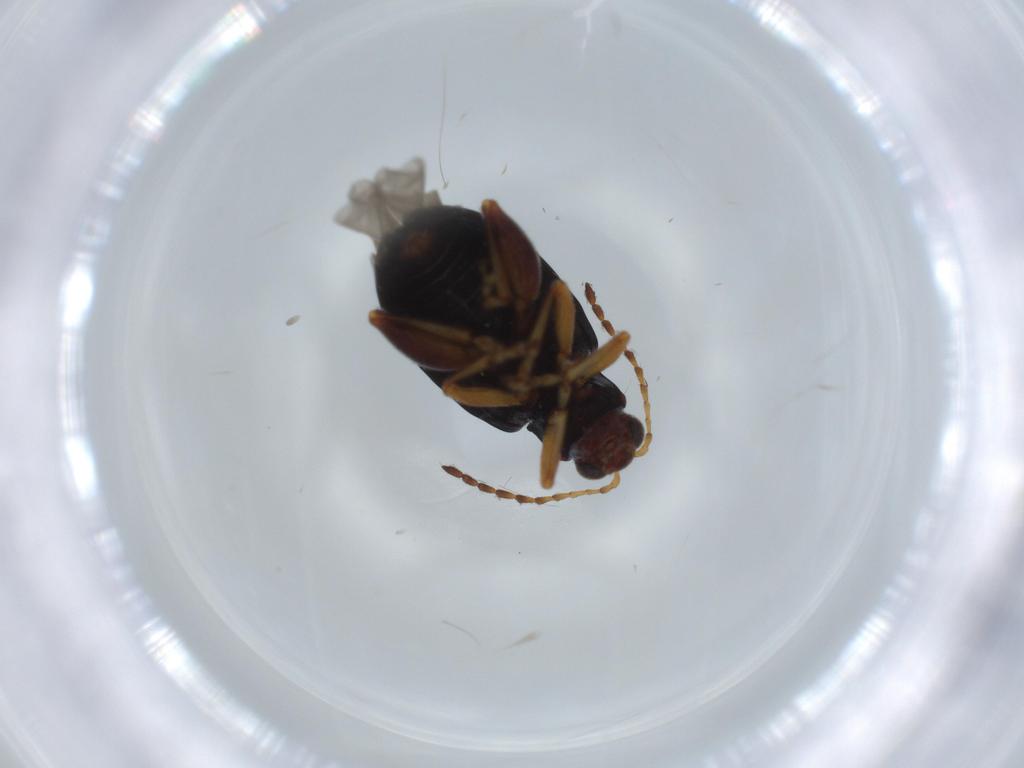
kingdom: Animalia
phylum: Arthropoda
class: Insecta
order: Coleoptera
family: Chrysomelidae
